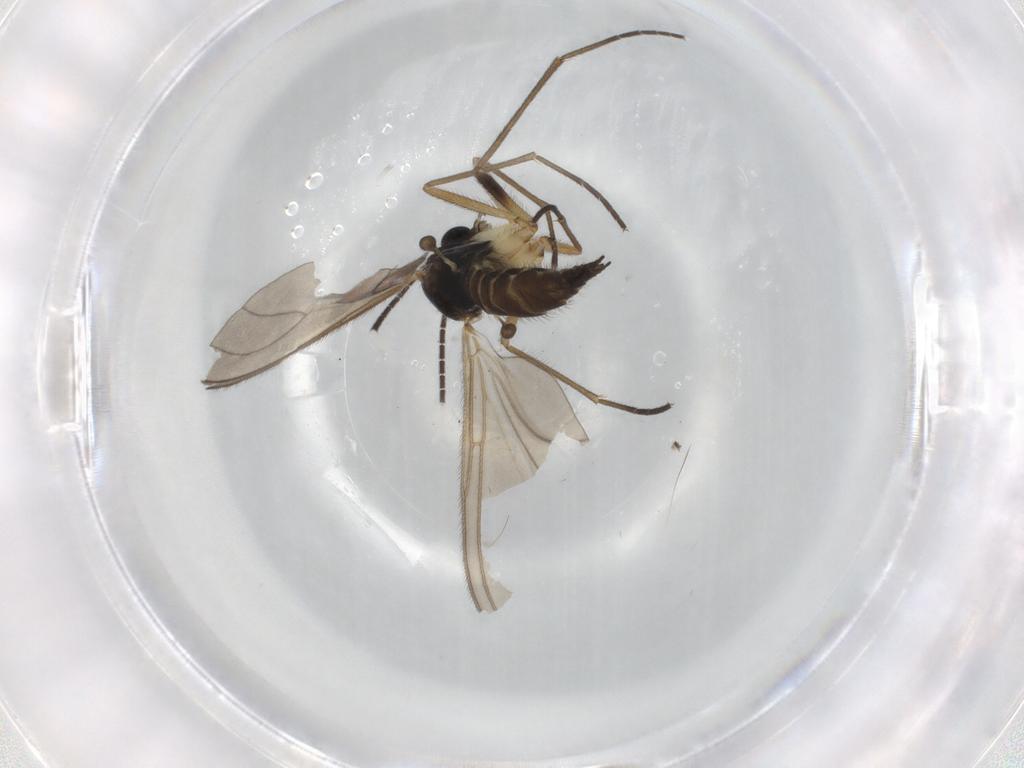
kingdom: Animalia
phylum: Arthropoda
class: Insecta
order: Diptera
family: Sciaridae
